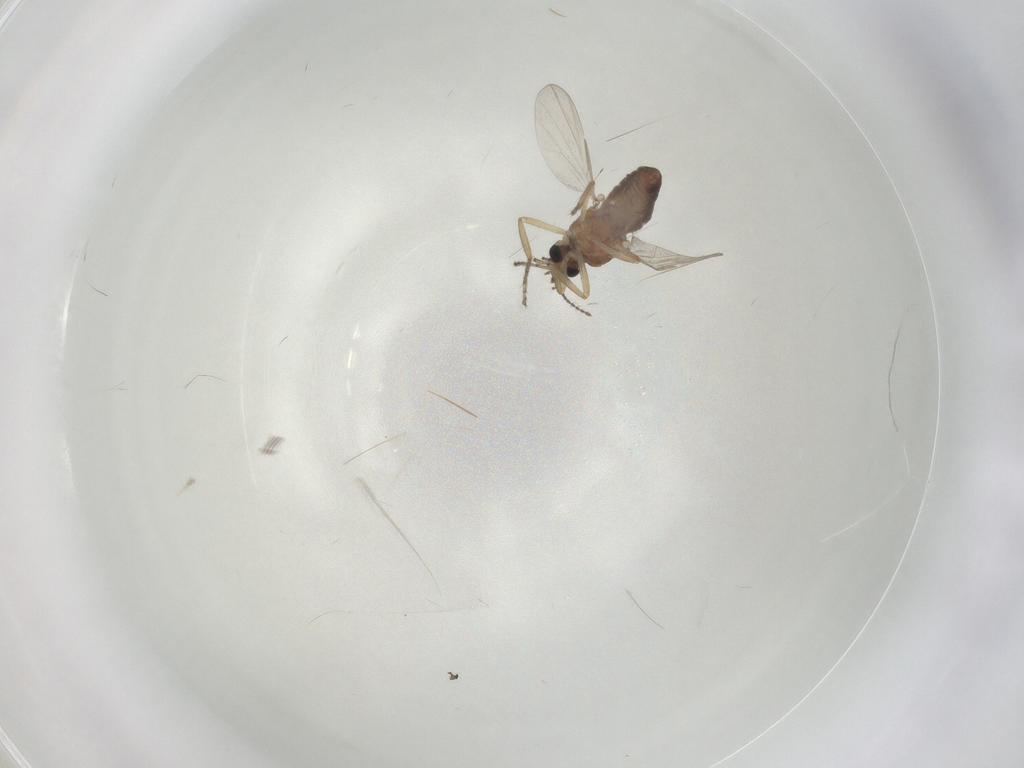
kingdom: Animalia
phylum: Arthropoda
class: Insecta
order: Diptera
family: Ceratopogonidae
